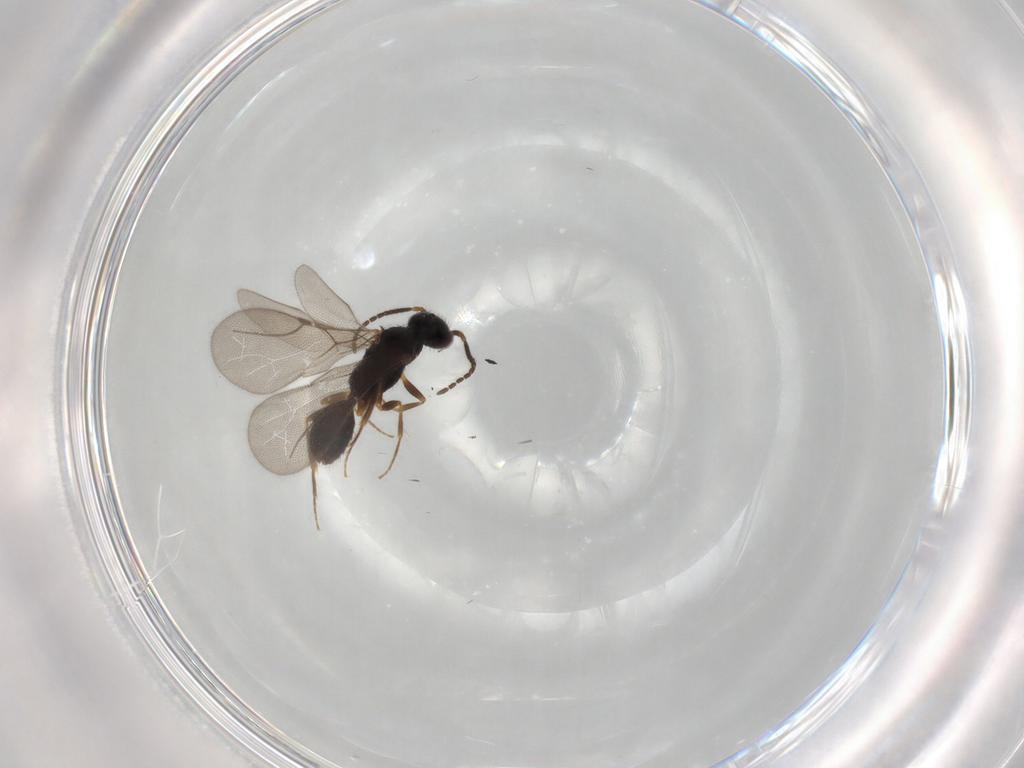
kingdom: Animalia
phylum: Arthropoda
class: Insecta
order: Hymenoptera
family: Bethylidae
